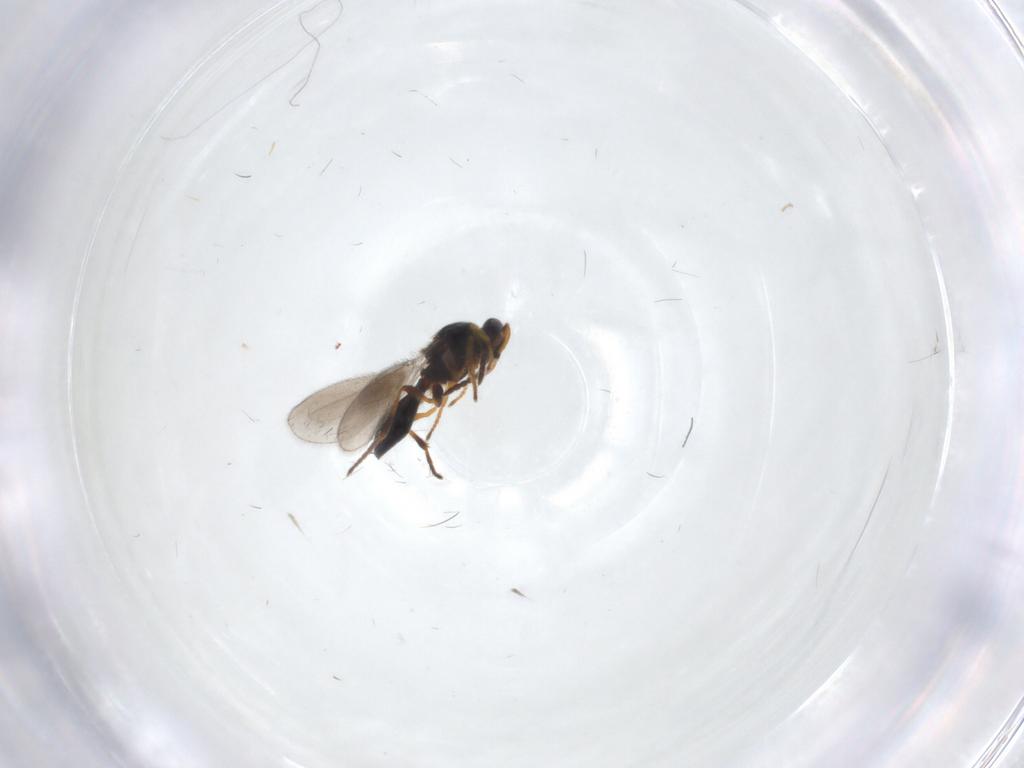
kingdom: Animalia
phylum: Arthropoda
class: Insecta
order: Hymenoptera
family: Platygastridae
